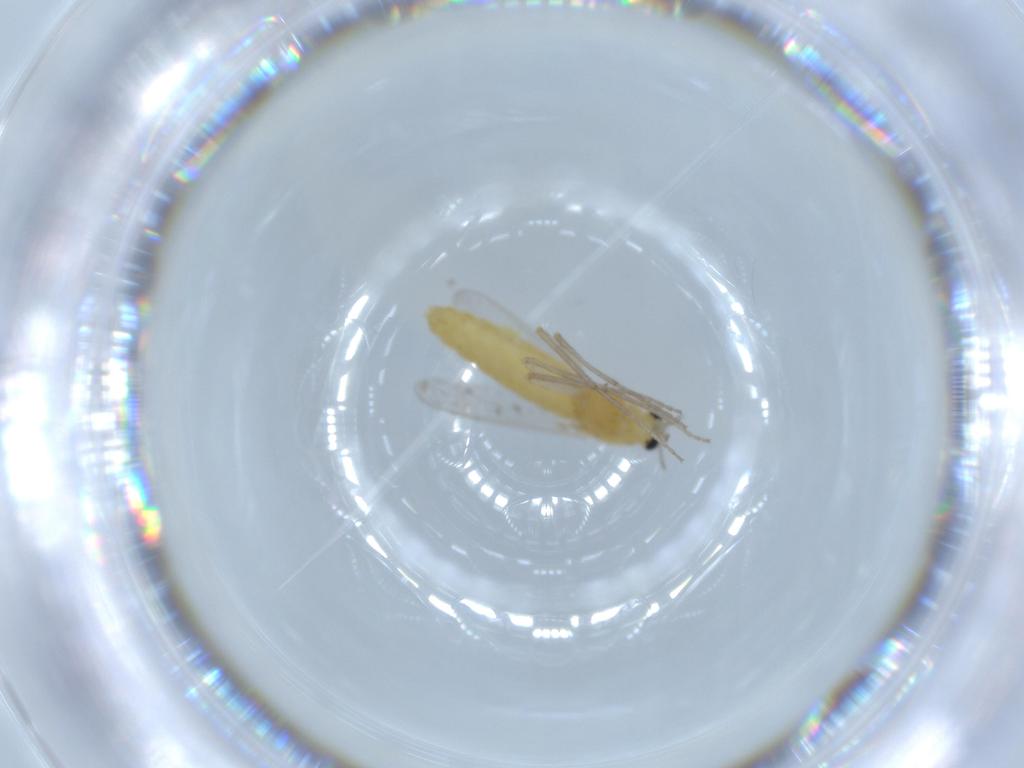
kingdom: Animalia
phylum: Arthropoda
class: Insecta
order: Diptera
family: Chironomidae
